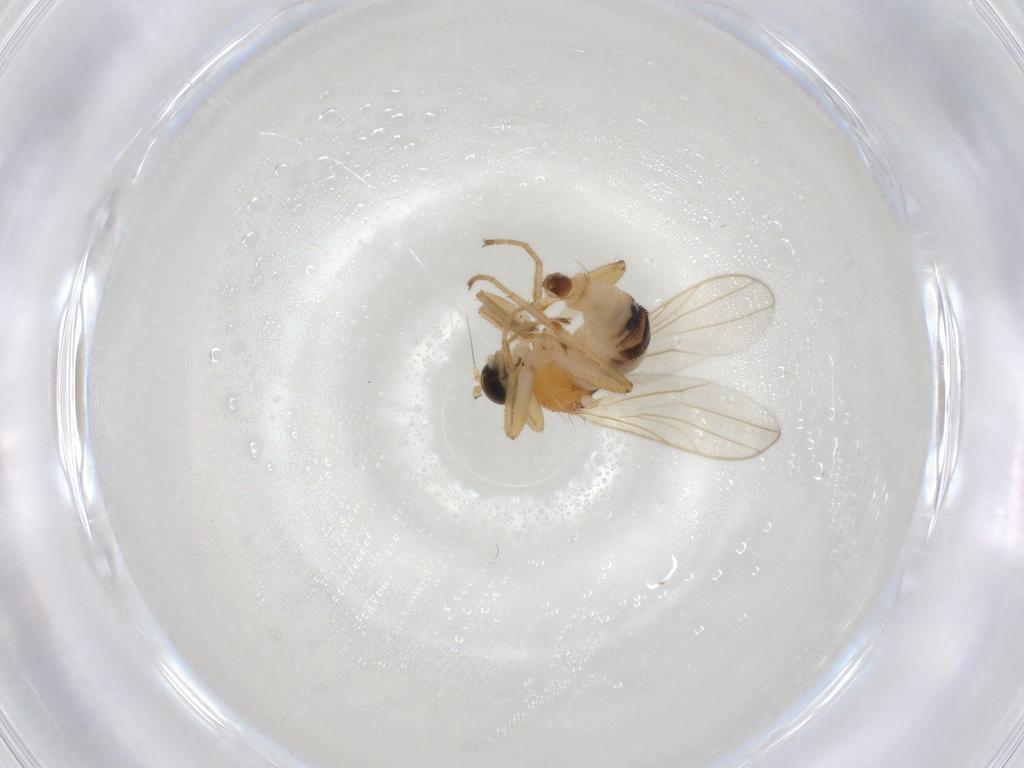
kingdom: Animalia
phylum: Arthropoda
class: Insecta
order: Diptera
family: Hybotidae
